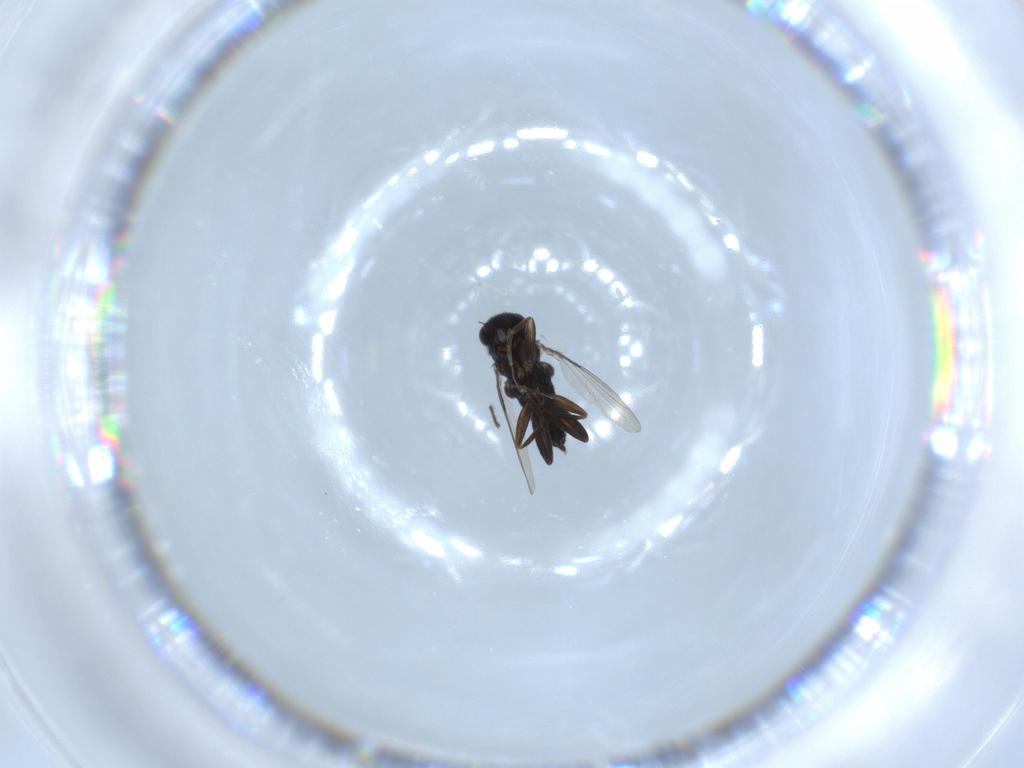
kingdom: Animalia
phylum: Arthropoda
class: Insecta
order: Diptera
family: Phoridae
